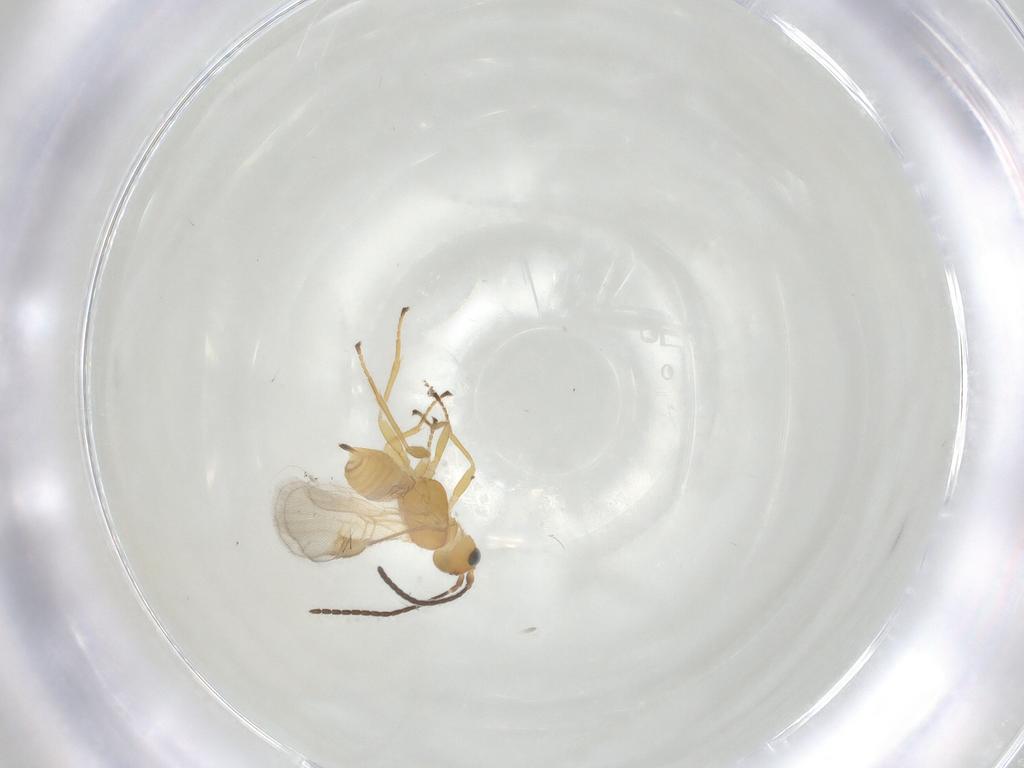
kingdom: Animalia
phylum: Arthropoda
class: Insecta
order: Hymenoptera
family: Braconidae
